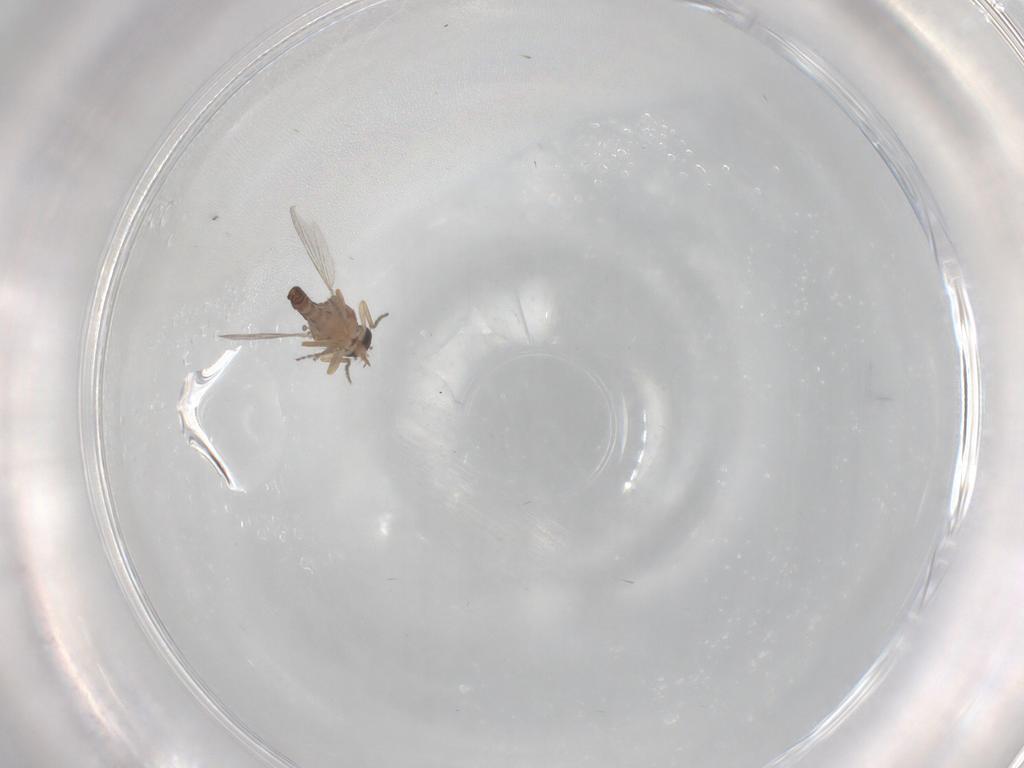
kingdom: Animalia
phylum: Arthropoda
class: Insecta
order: Diptera
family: Ceratopogonidae
